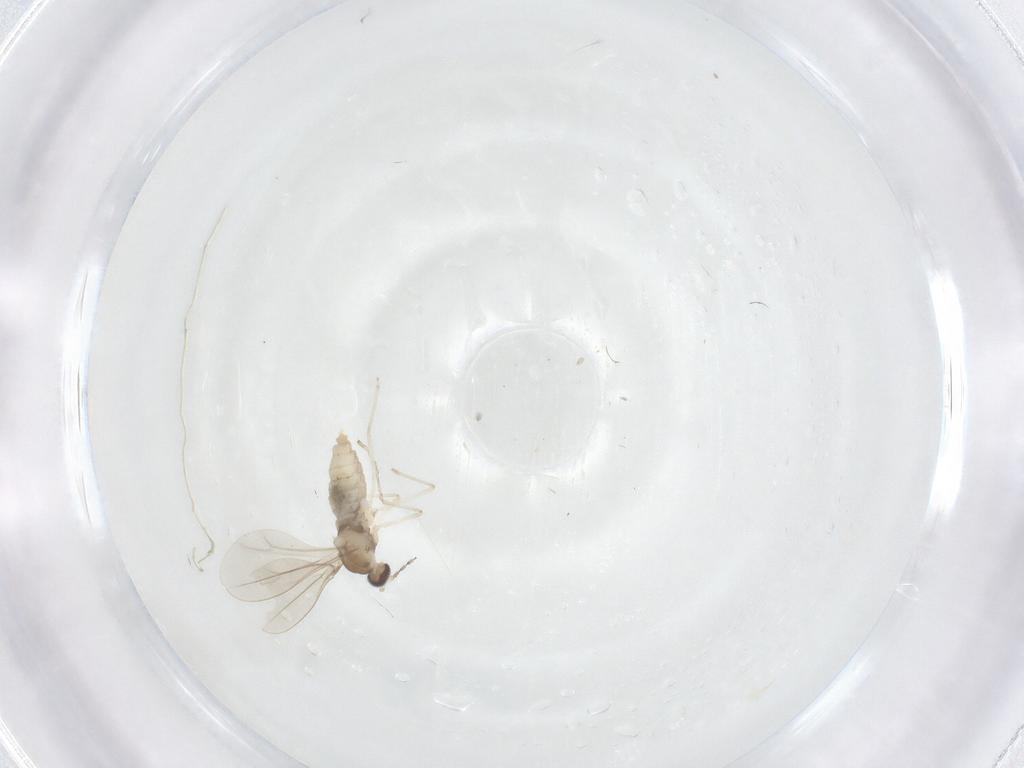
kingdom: Animalia
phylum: Arthropoda
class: Insecta
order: Diptera
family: Cecidomyiidae
